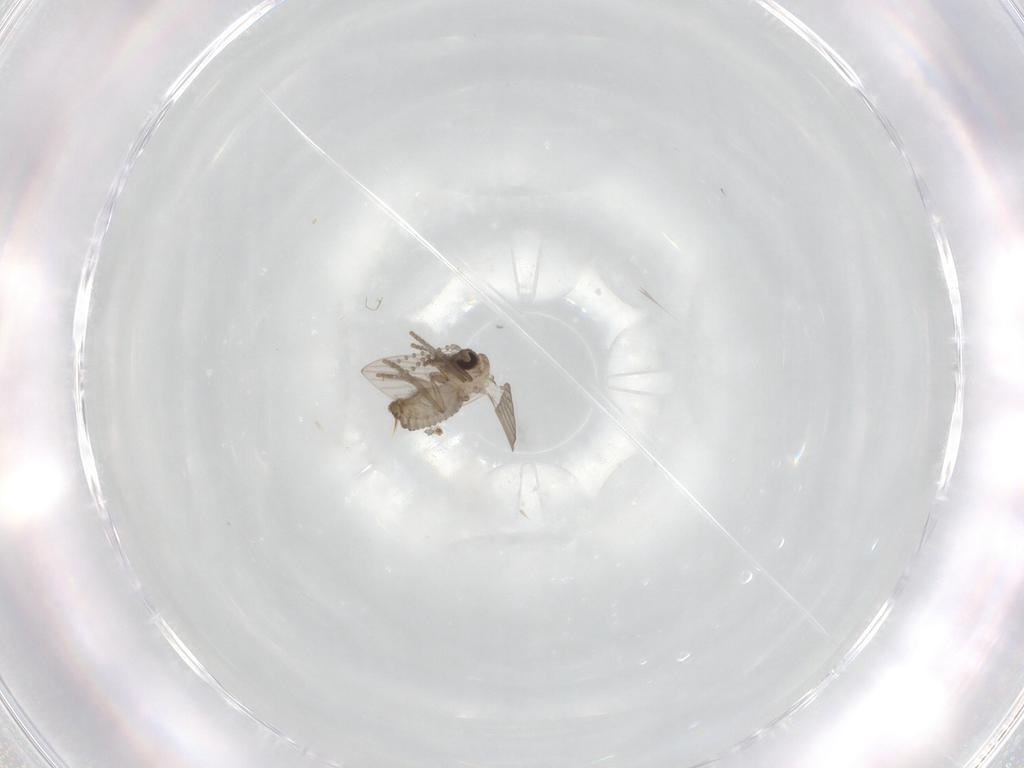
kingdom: Animalia
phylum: Arthropoda
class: Insecta
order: Diptera
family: Psychodidae
